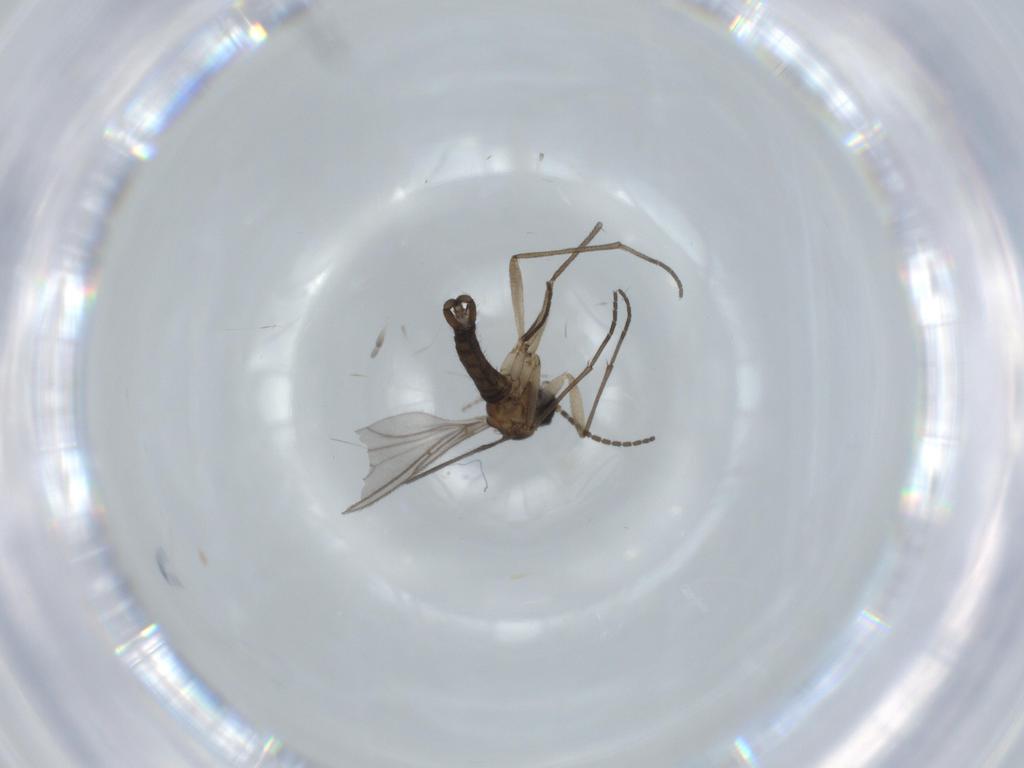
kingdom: Animalia
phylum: Arthropoda
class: Insecta
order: Diptera
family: Sciaridae
